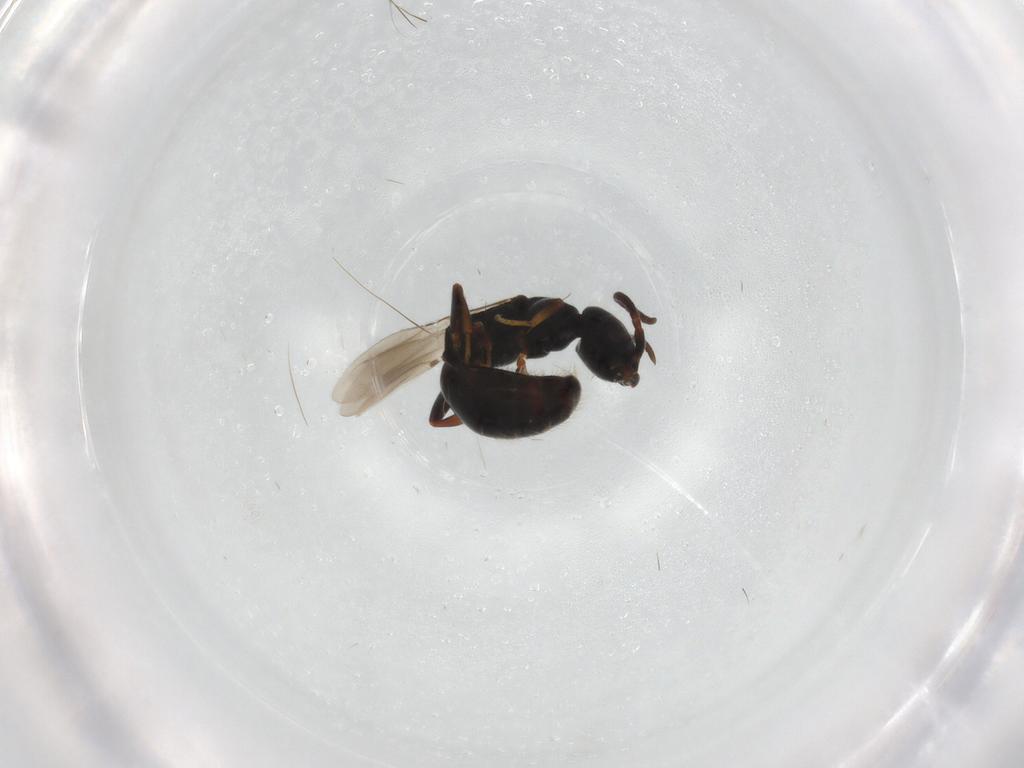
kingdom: Animalia
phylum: Arthropoda
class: Insecta
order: Hymenoptera
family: Bethylidae
